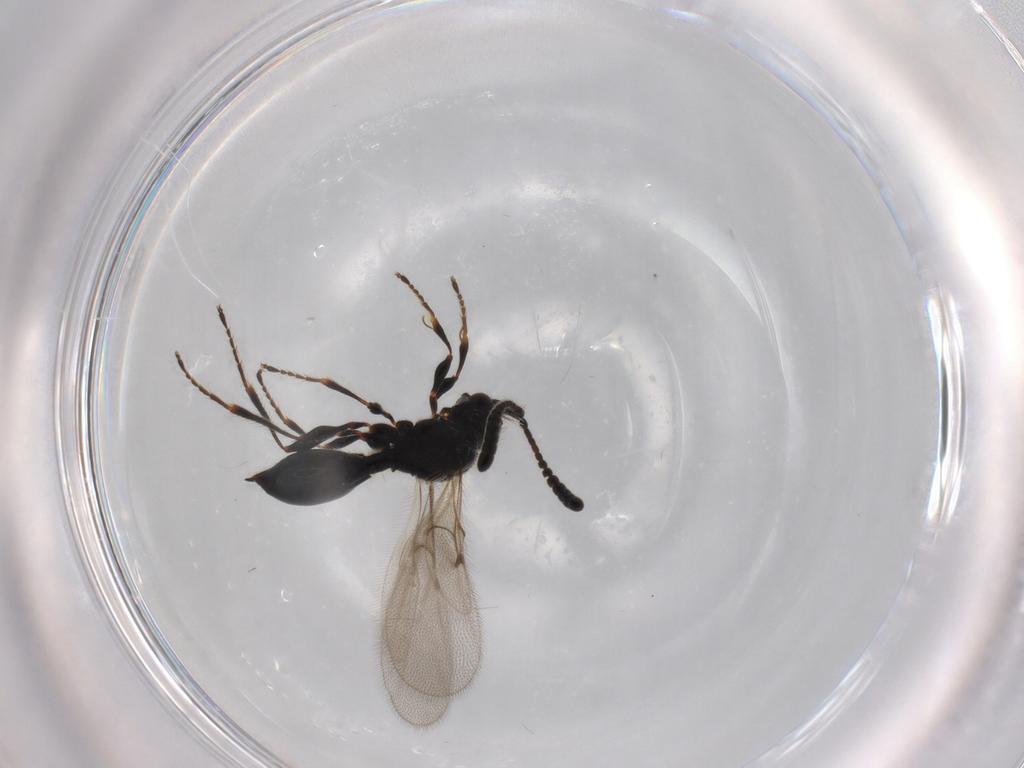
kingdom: Animalia
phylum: Arthropoda
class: Insecta
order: Hymenoptera
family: Diapriidae
